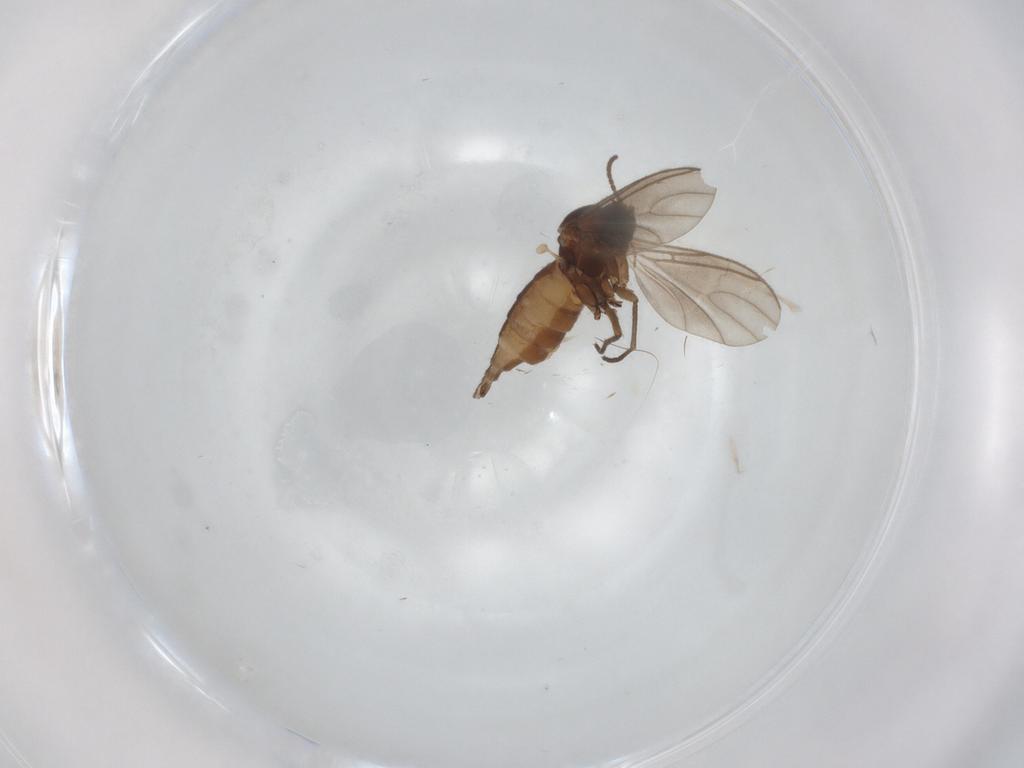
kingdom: Animalia
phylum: Arthropoda
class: Insecta
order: Diptera
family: Sciaridae
